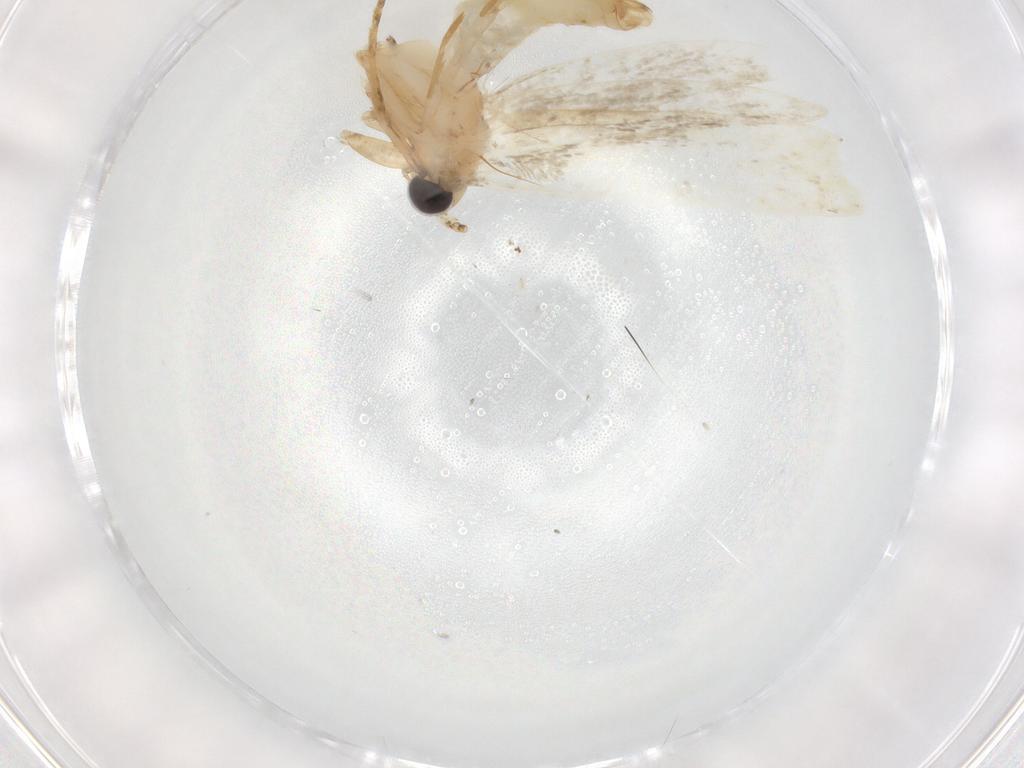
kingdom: Animalia
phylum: Arthropoda
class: Insecta
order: Lepidoptera
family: Tineidae
